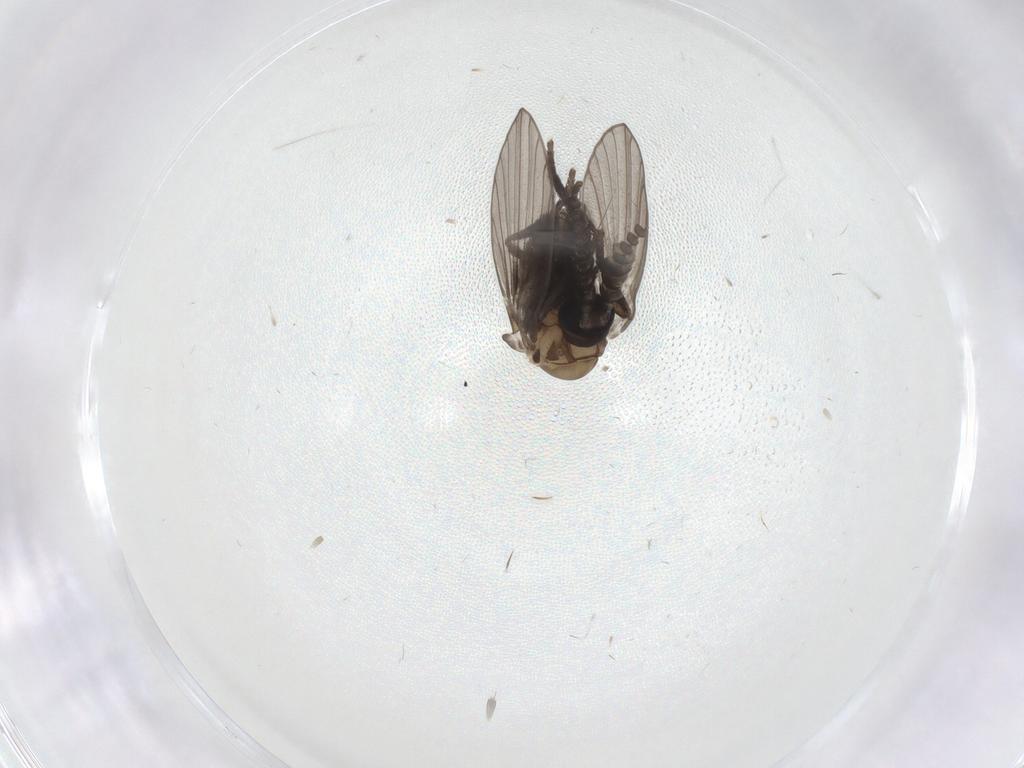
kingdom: Animalia
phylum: Arthropoda
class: Insecta
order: Diptera
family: Psychodidae
